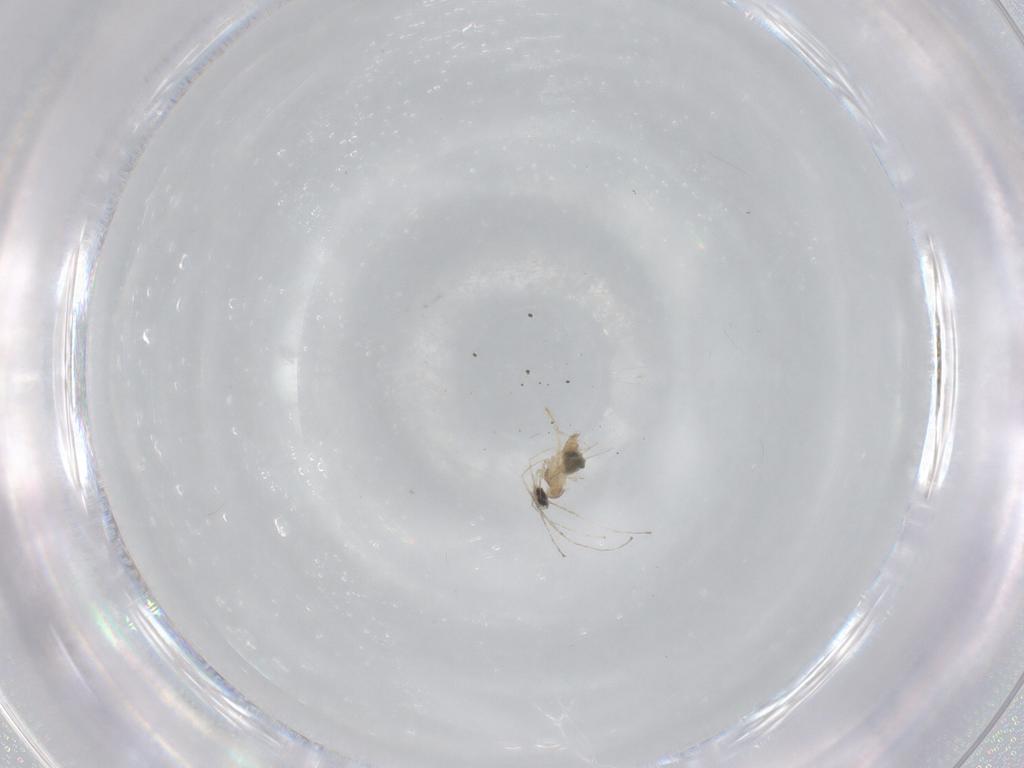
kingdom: Animalia
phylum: Arthropoda
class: Insecta
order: Diptera
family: Cecidomyiidae
